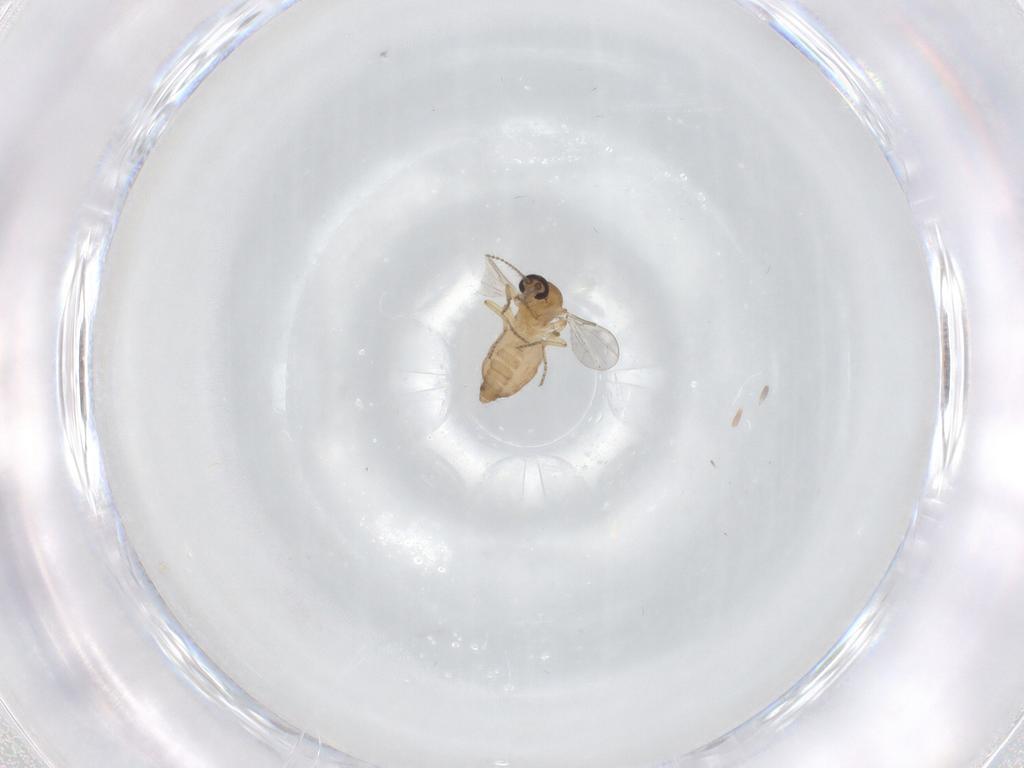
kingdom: Animalia
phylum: Arthropoda
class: Insecta
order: Diptera
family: Ceratopogonidae
